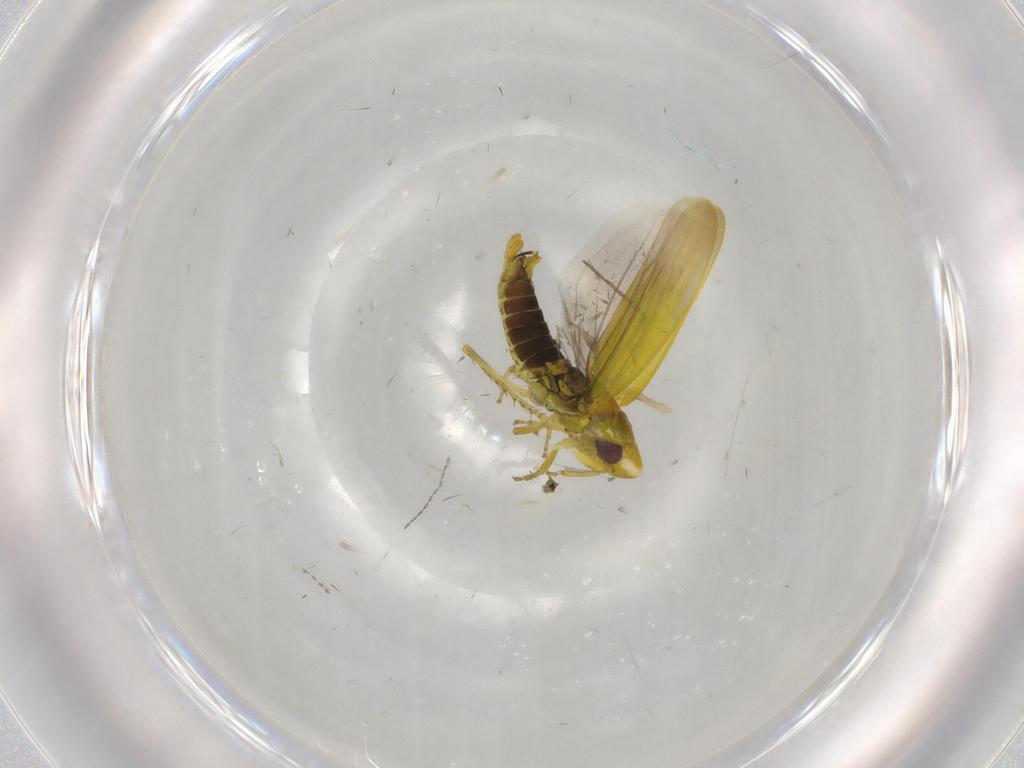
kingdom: Animalia
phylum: Arthropoda
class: Insecta
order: Hemiptera
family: Cicadellidae
